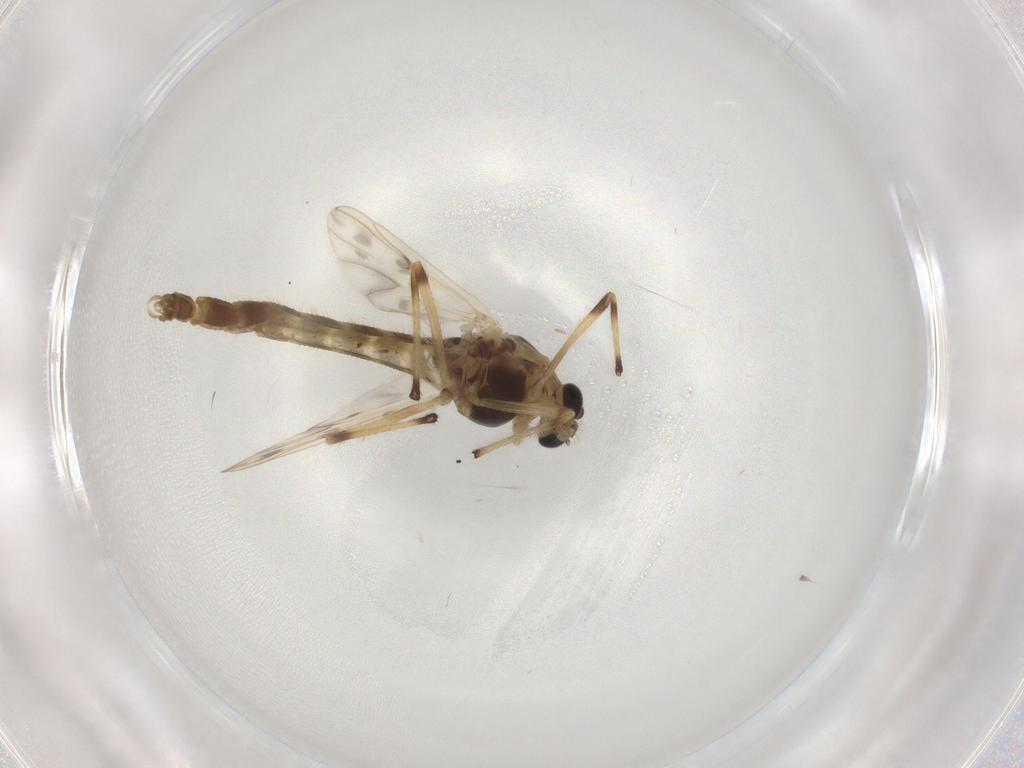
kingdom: Animalia
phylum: Arthropoda
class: Insecta
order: Diptera
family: Chironomidae
